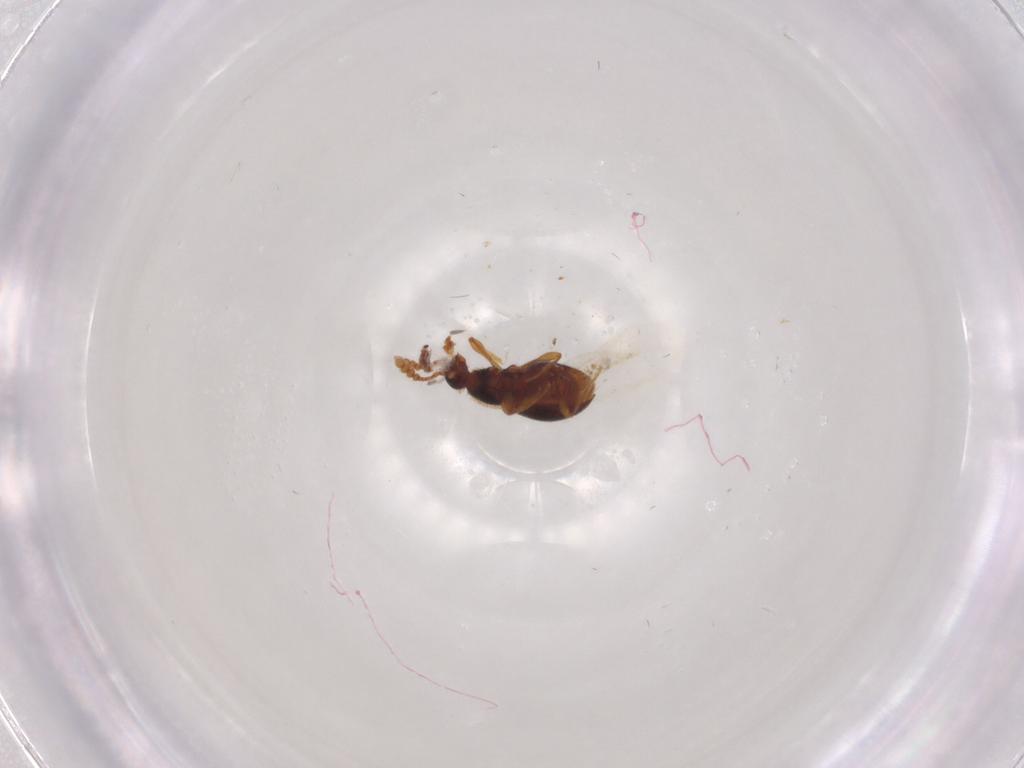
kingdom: Animalia
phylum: Arthropoda
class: Insecta
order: Coleoptera
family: Staphylinidae
